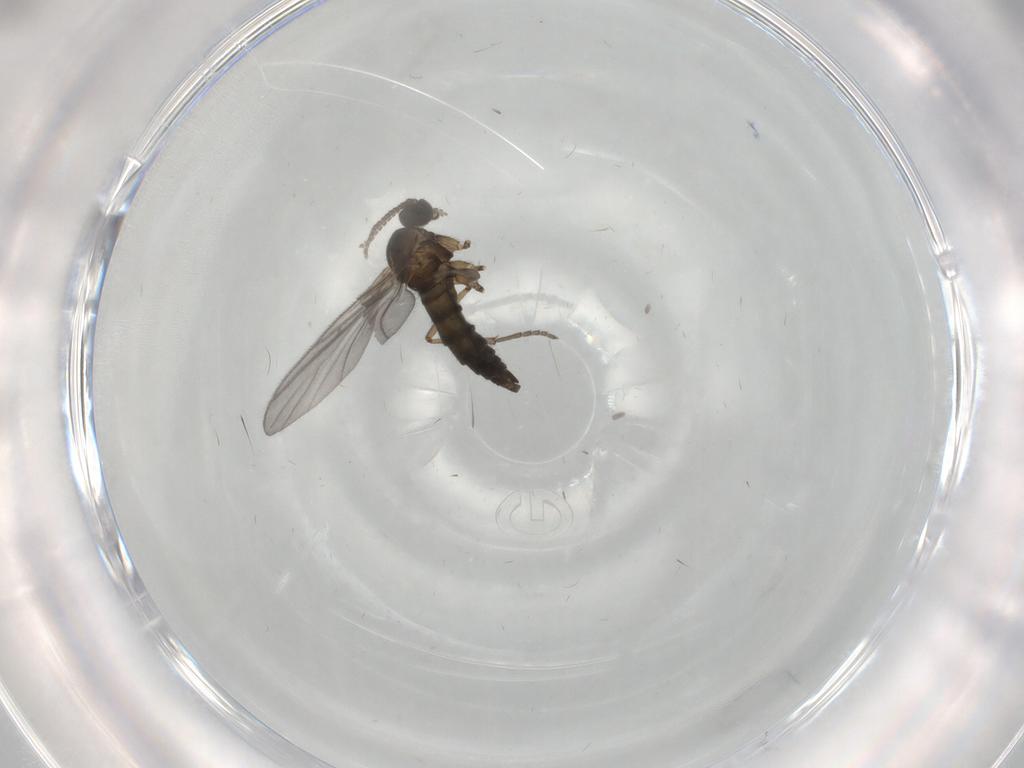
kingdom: Animalia
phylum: Arthropoda
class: Insecta
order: Diptera
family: Sciaridae
